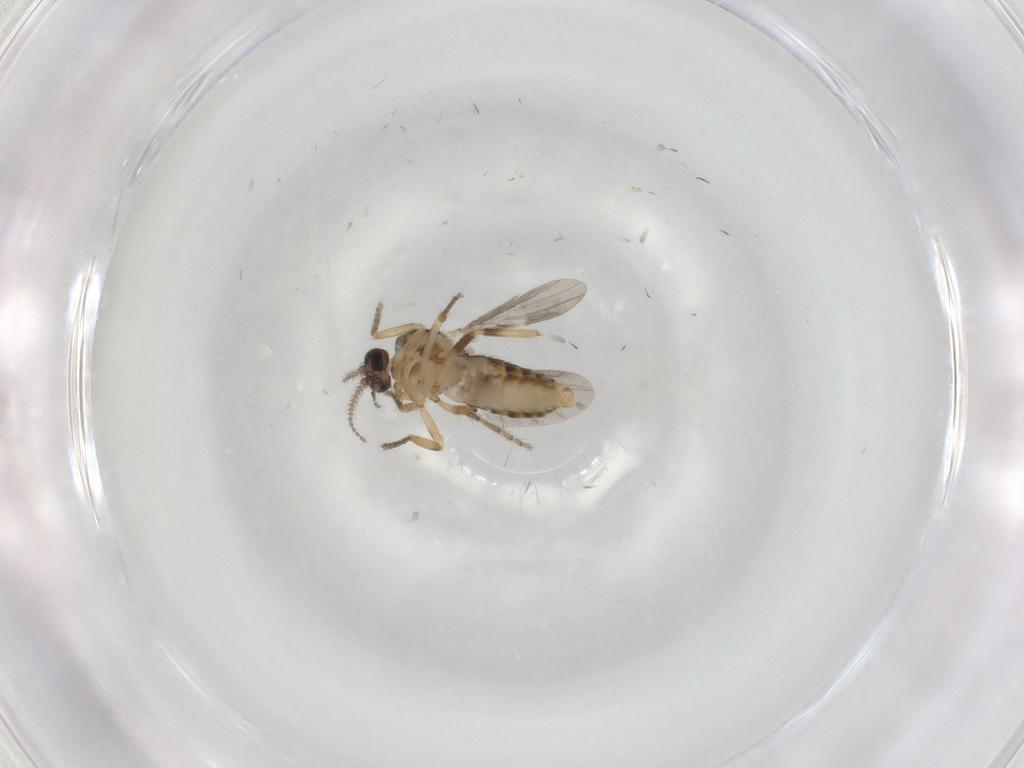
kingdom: Animalia
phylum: Arthropoda
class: Insecta
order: Diptera
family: Ceratopogonidae
